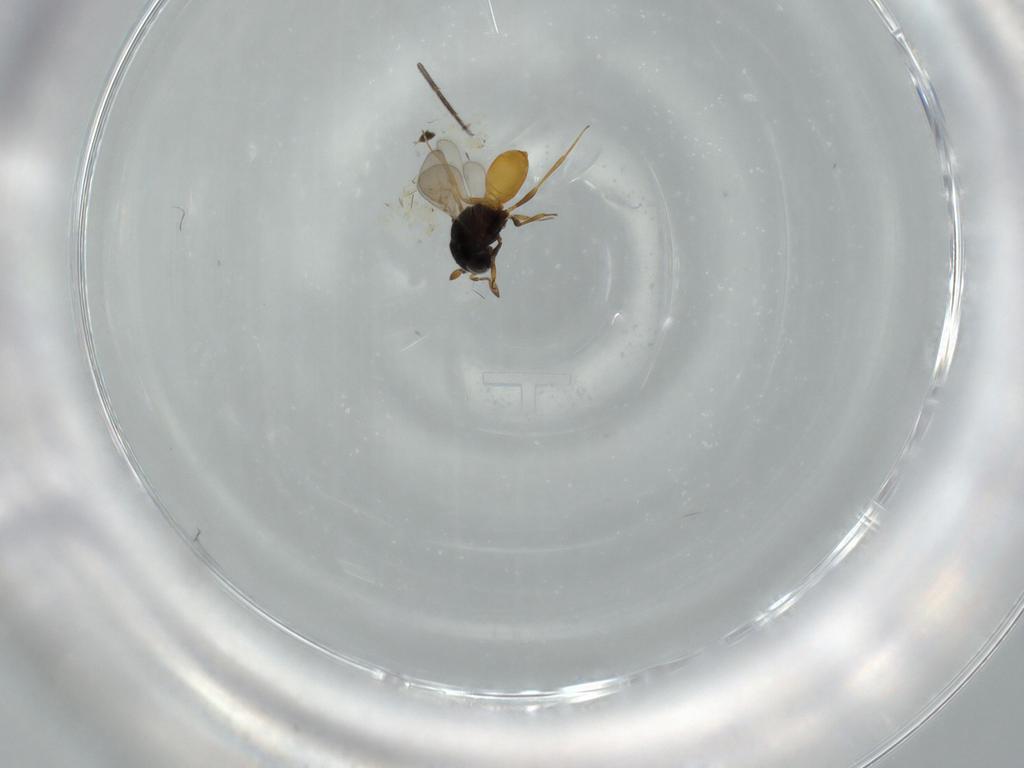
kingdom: Animalia
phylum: Arthropoda
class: Insecta
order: Hymenoptera
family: Scelionidae
